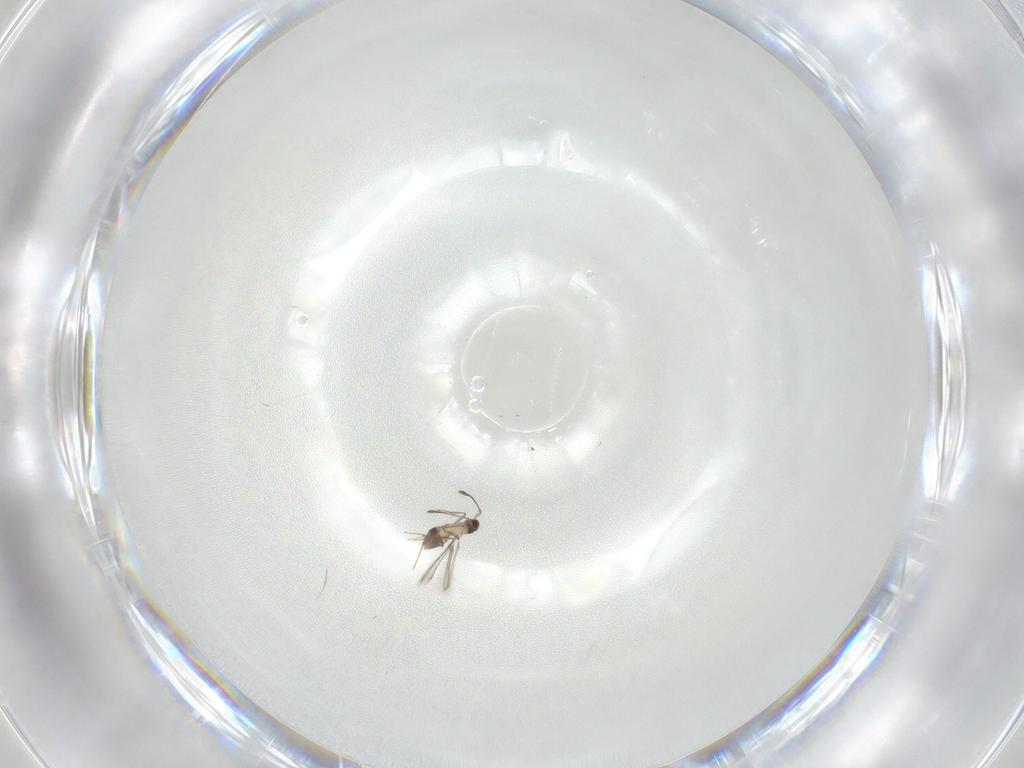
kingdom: Animalia
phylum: Arthropoda
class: Insecta
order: Hymenoptera
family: Mymaridae
